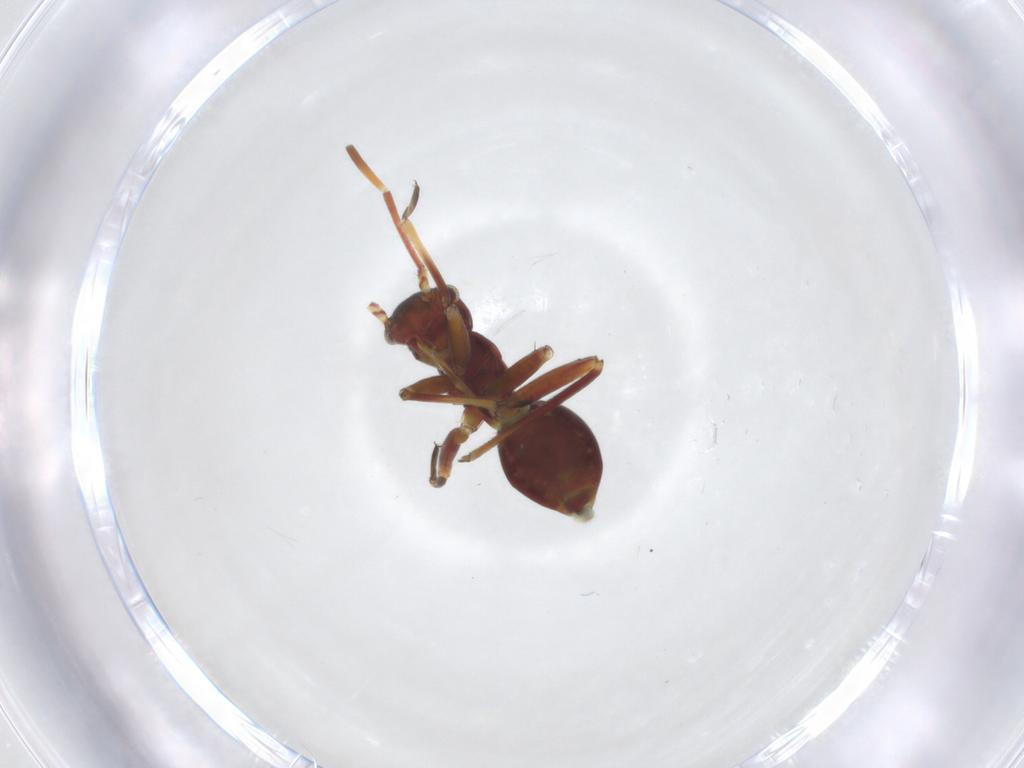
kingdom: Animalia
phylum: Arthropoda
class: Insecta
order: Hemiptera
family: Miridae
